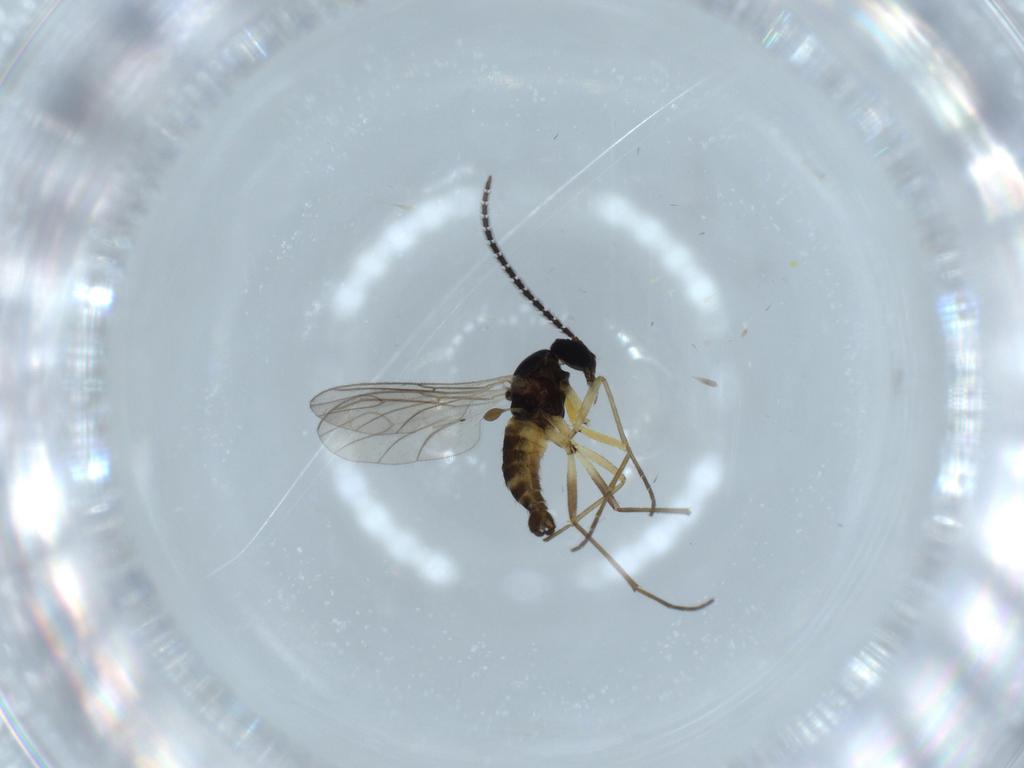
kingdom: Animalia
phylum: Arthropoda
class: Insecta
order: Diptera
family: Sciaridae
